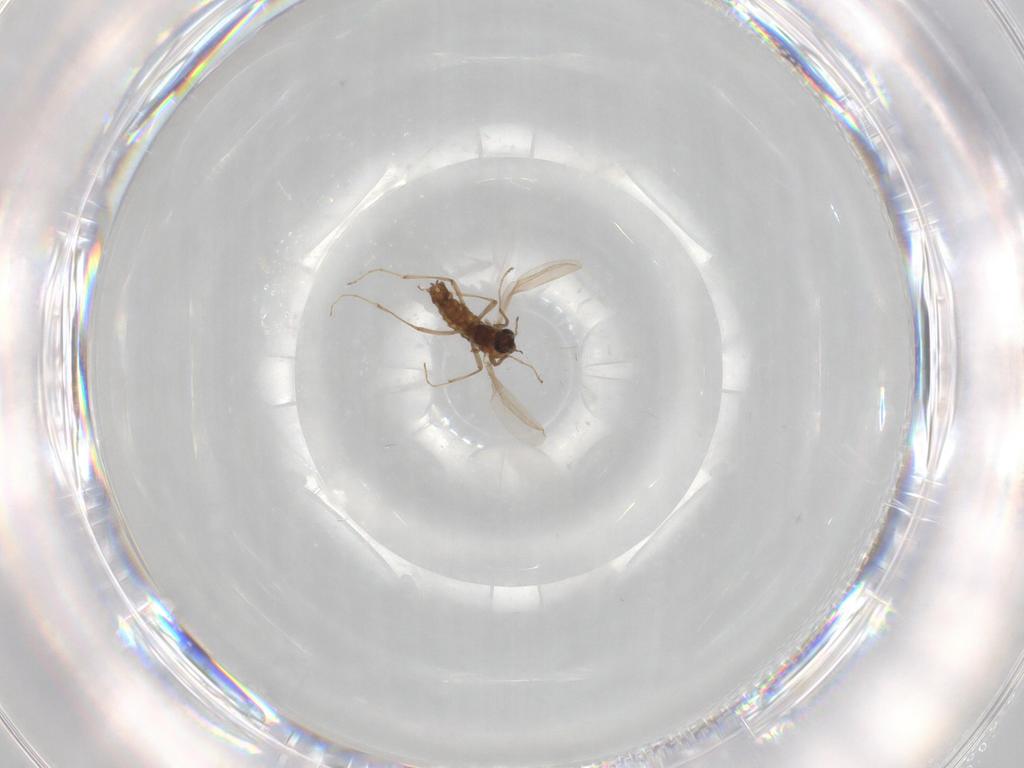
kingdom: Animalia
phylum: Arthropoda
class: Insecta
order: Diptera
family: Chironomidae
